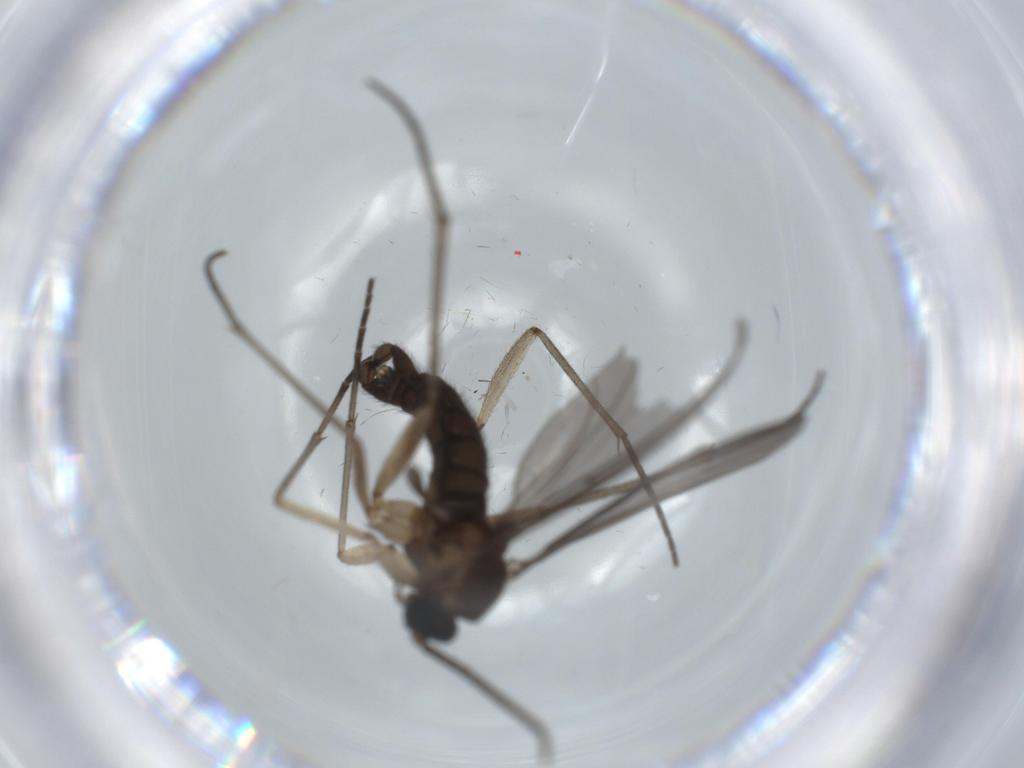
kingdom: Animalia
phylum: Arthropoda
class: Insecta
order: Diptera
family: Sciaridae
